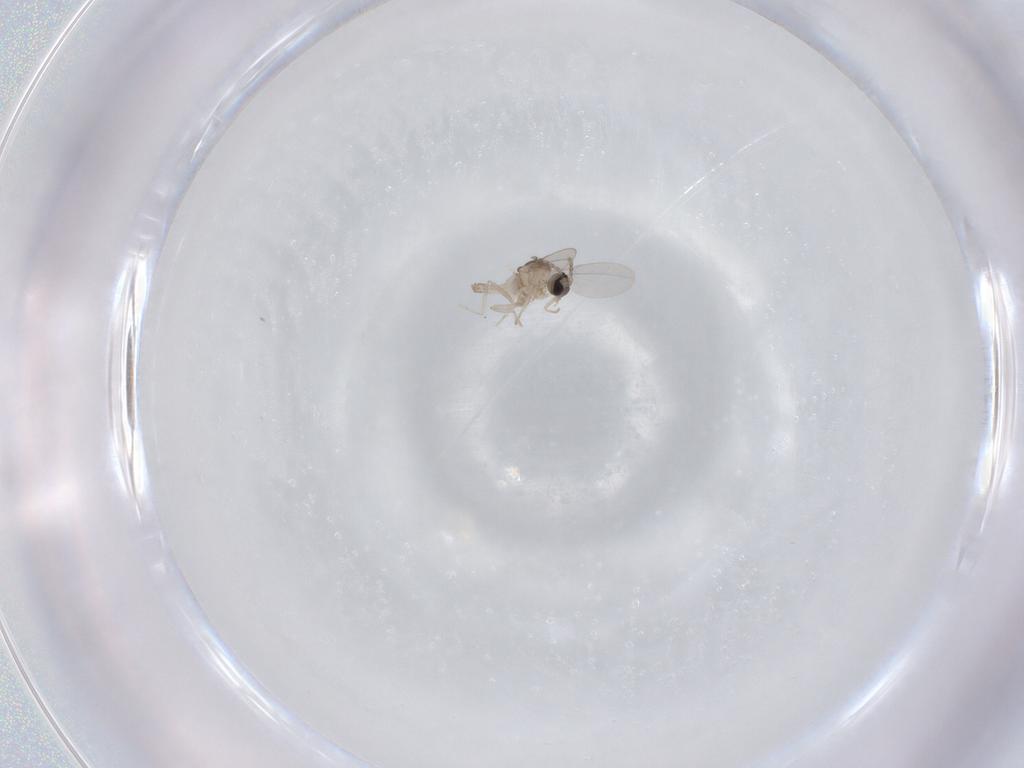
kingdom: Animalia
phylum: Arthropoda
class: Insecta
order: Diptera
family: Cecidomyiidae
